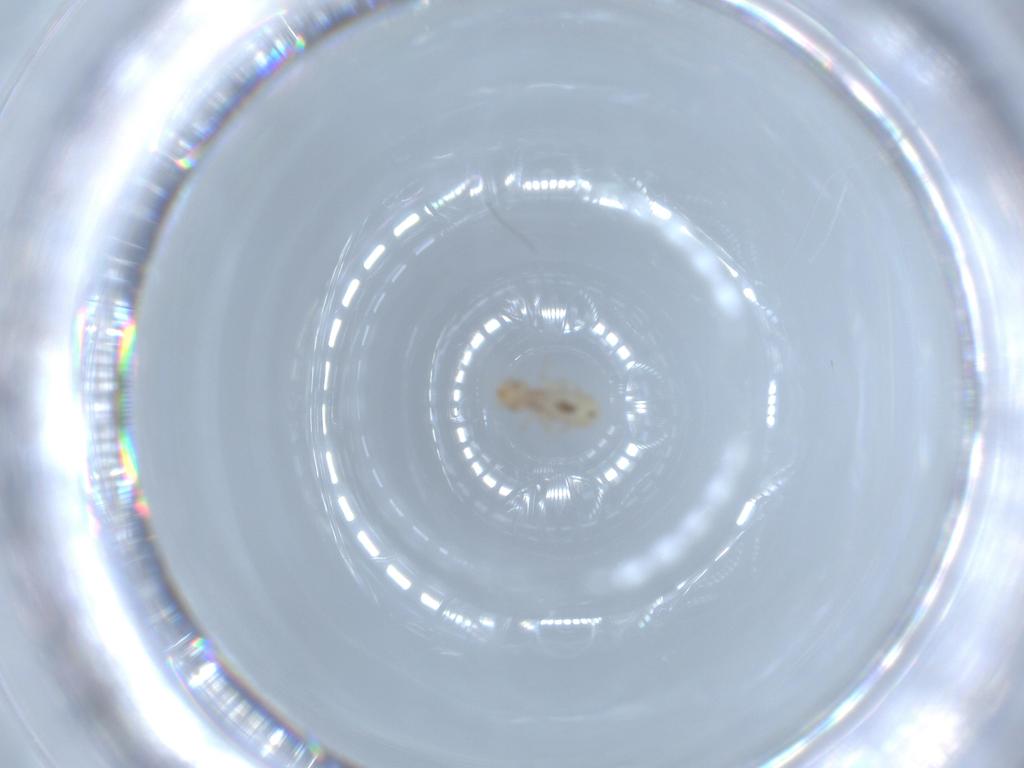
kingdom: Animalia
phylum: Arthropoda
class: Insecta
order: Psocodea
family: Liposcelididae
